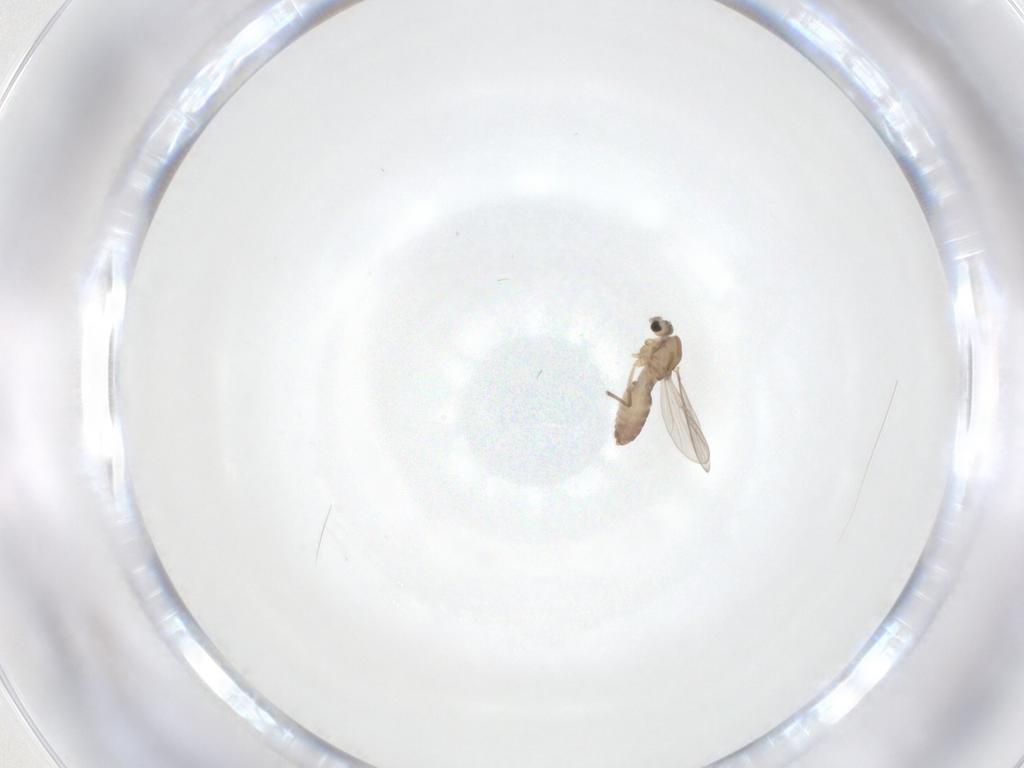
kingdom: Animalia
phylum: Arthropoda
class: Insecta
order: Diptera
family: Chironomidae
